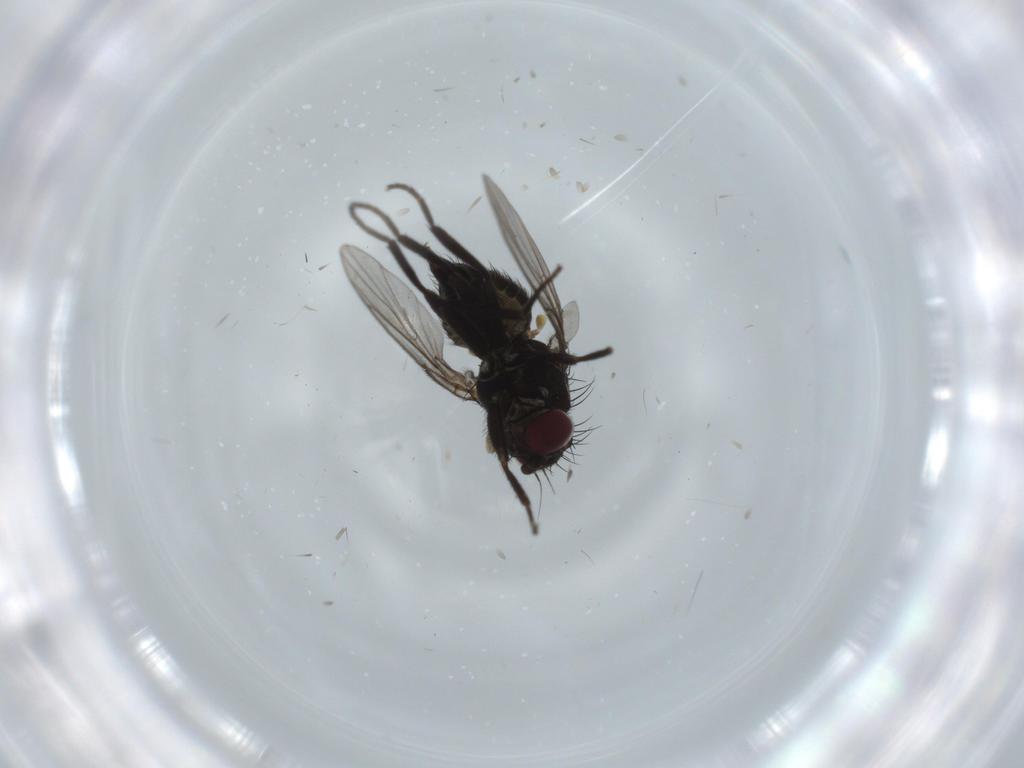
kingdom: Animalia
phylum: Arthropoda
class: Insecta
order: Diptera
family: Agromyzidae
